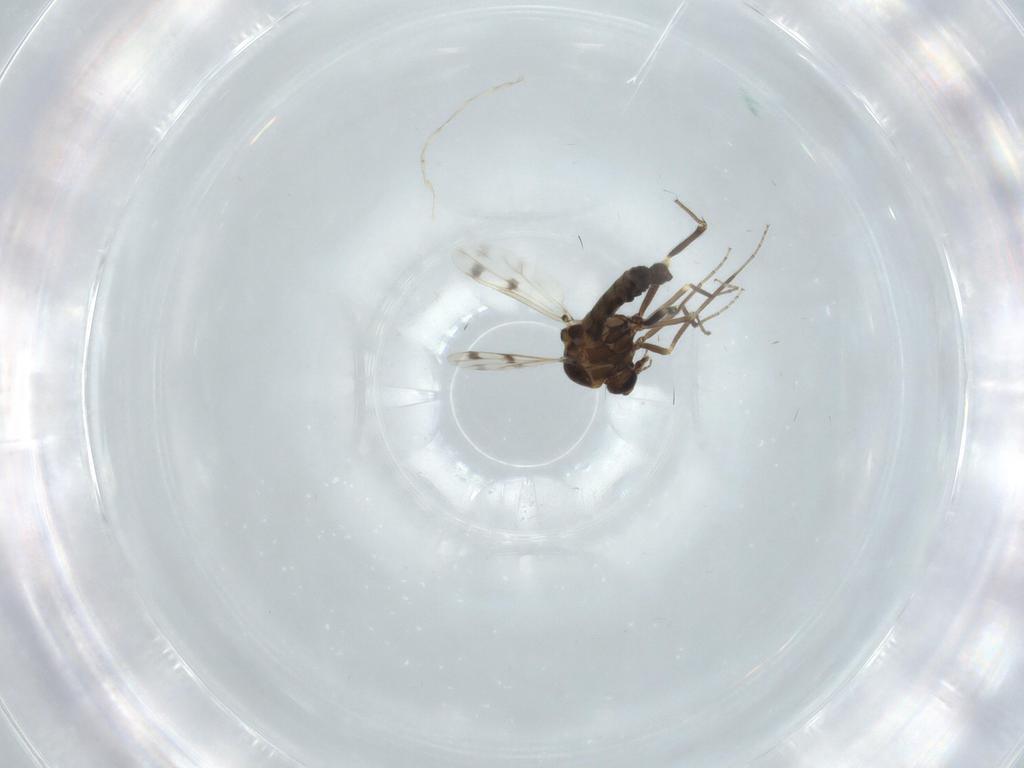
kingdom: Animalia
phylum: Arthropoda
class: Insecta
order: Diptera
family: Ceratopogonidae
